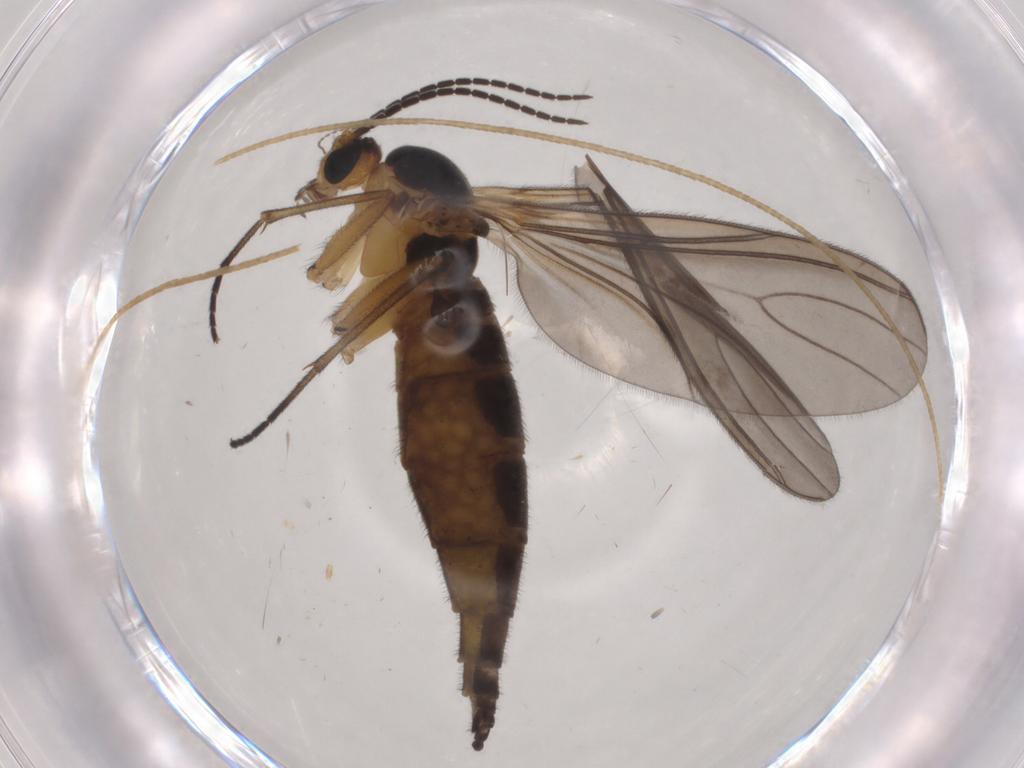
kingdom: Animalia
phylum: Arthropoda
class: Insecta
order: Diptera
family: Sciaridae
